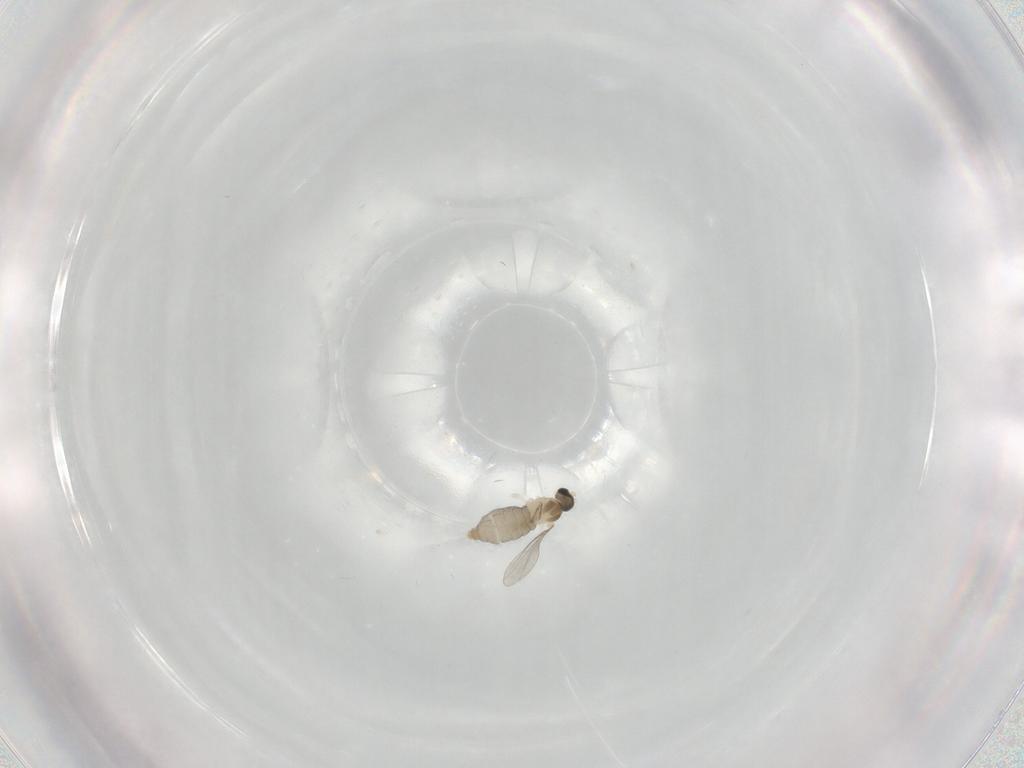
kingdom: Animalia
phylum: Arthropoda
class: Insecta
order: Diptera
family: Cecidomyiidae
